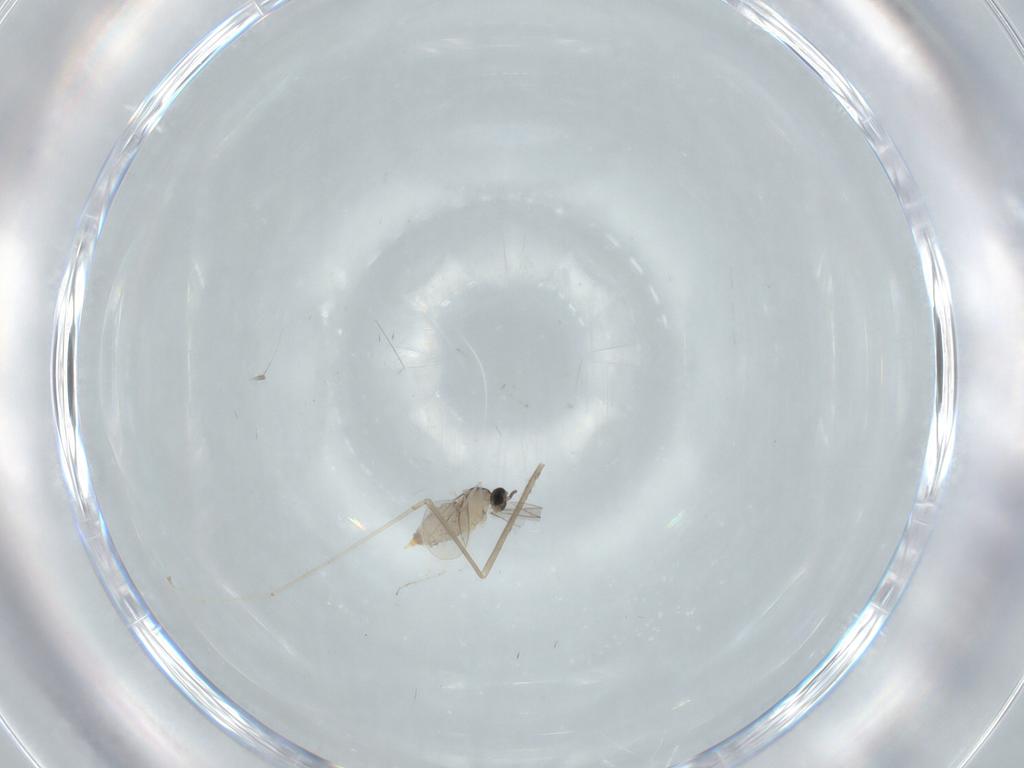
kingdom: Animalia
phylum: Arthropoda
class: Insecta
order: Diptera
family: Cecidomyiidae
